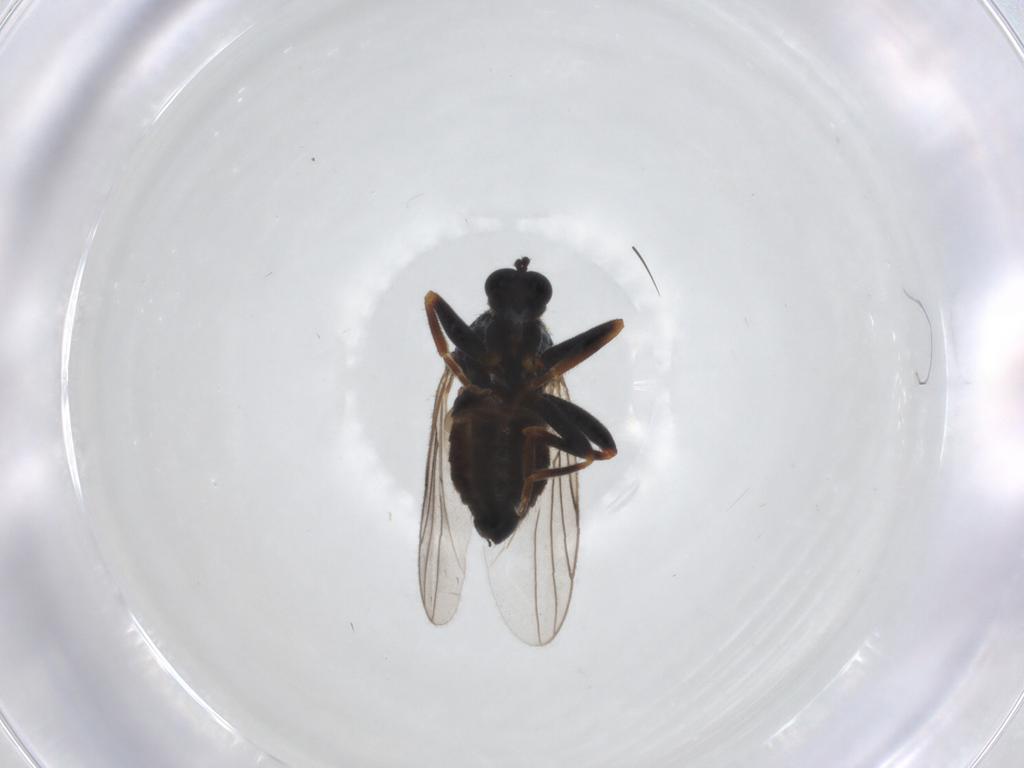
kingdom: Animalia
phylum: Arthropoda
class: Insecta
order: Diptera
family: Hybotidae
